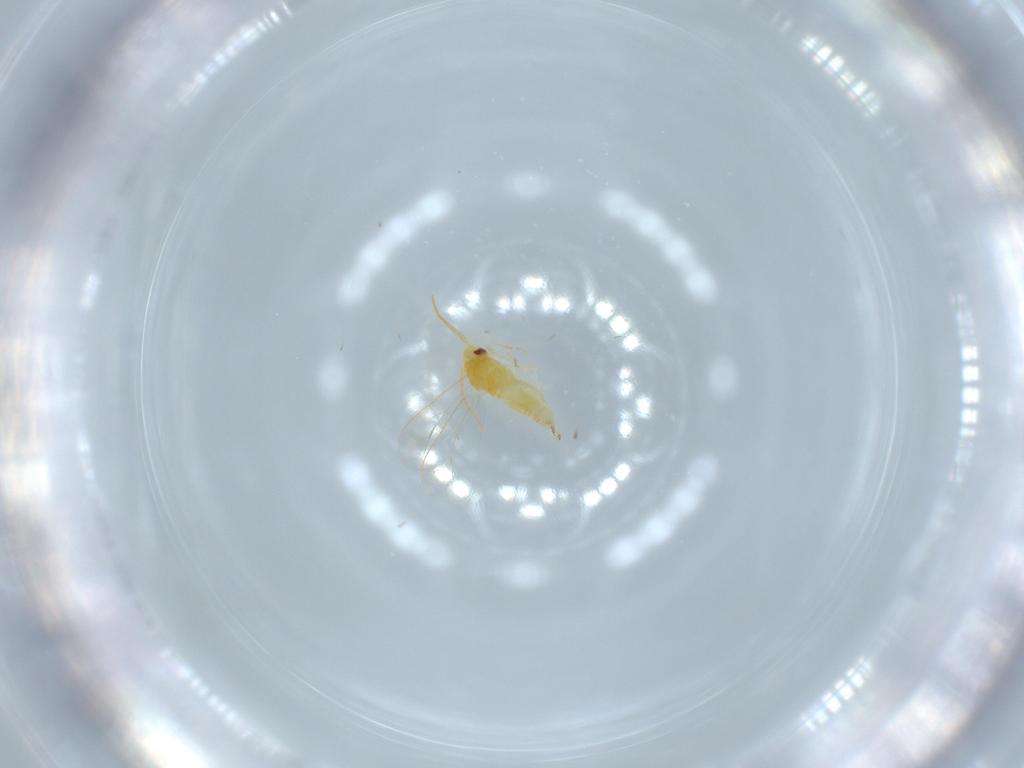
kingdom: Animalia
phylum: Arthropoda
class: Insecta
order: Hemiptera
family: Aleyrodidae
